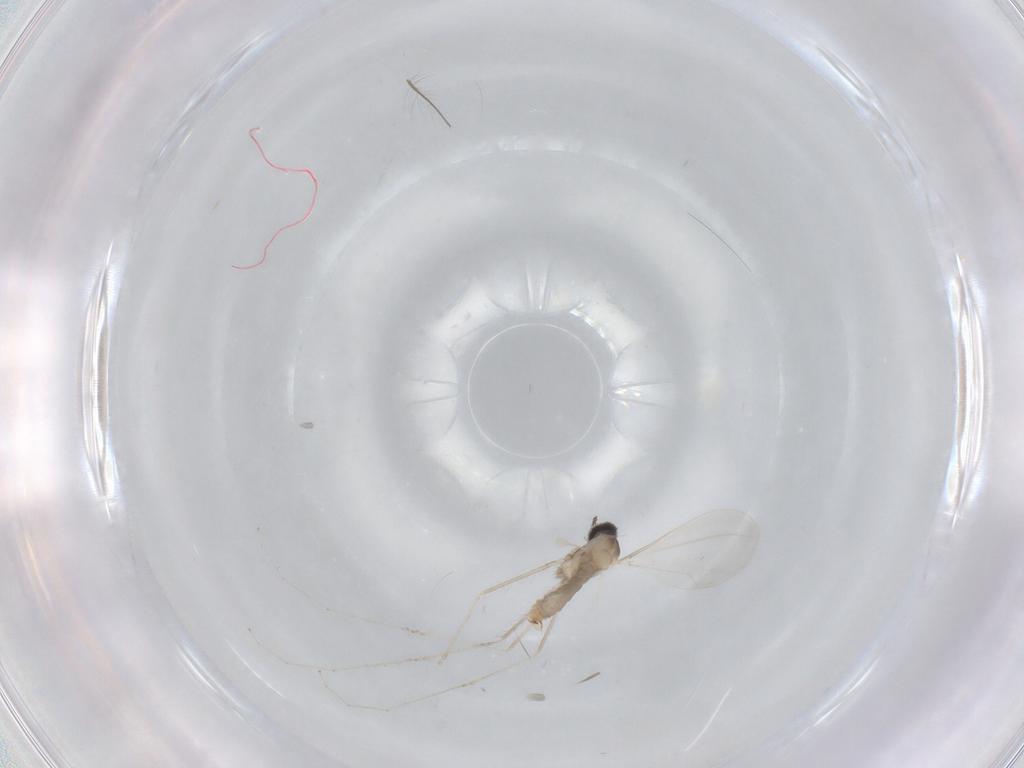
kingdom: Animalia
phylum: Arthropoda
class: Insecta
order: Diptera
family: Cecidomyiidae
